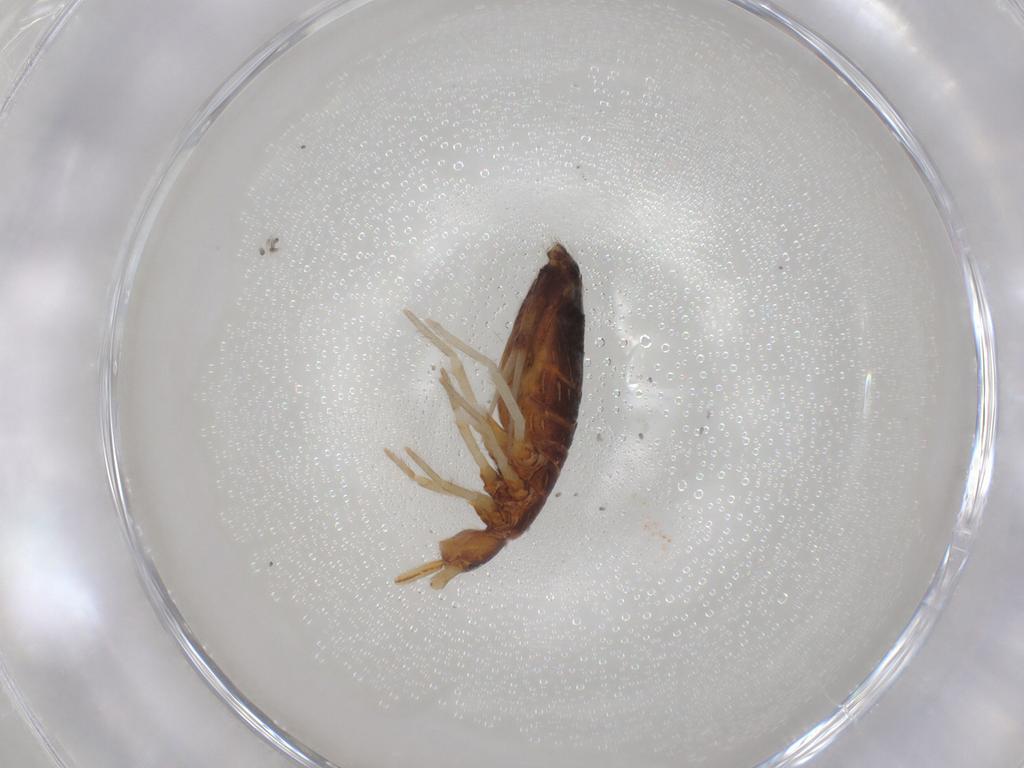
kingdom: Animalia
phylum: Arthropoda
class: Collembola
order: Entomobryomorpha
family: Entomobryidae
